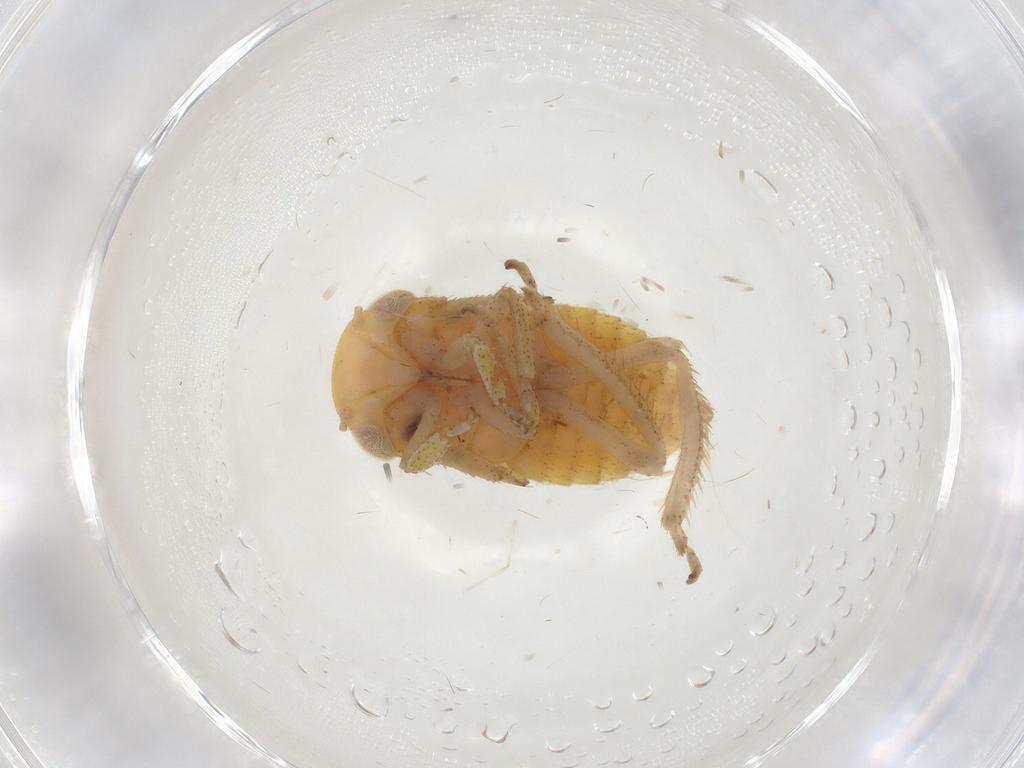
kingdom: Animalia
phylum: Arthropoda
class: Insecta
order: Hemiptera
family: Cicadellidae
